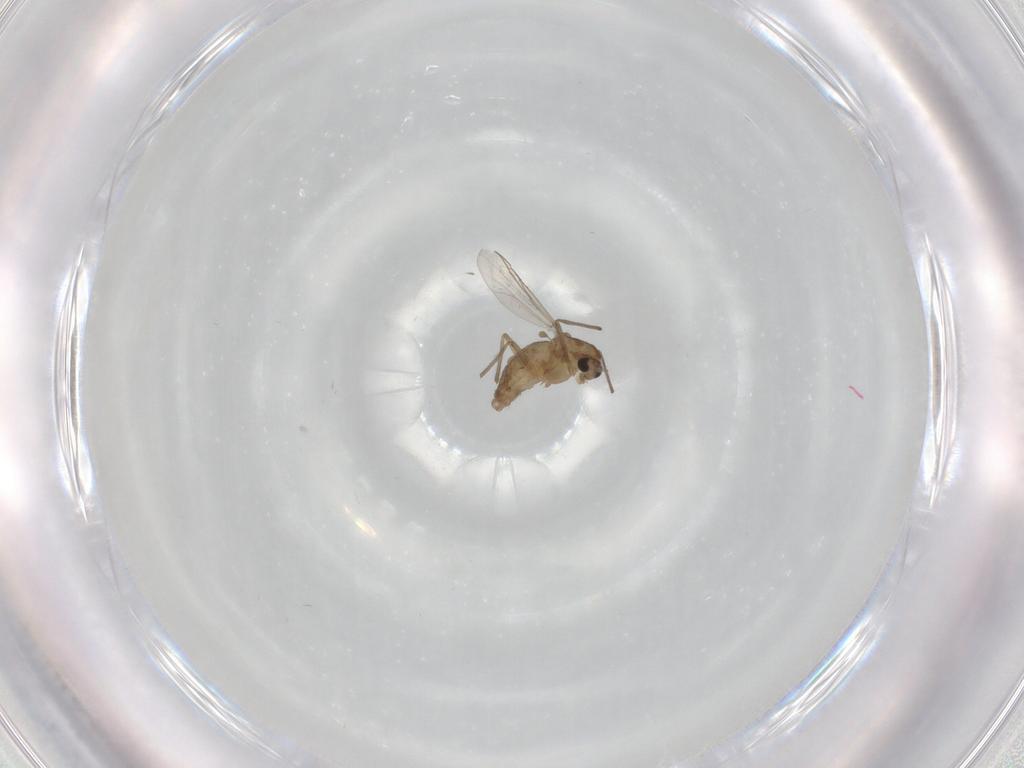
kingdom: Animalia
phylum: Arthropoda
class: Insecta
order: Diptera
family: Chironomidae
